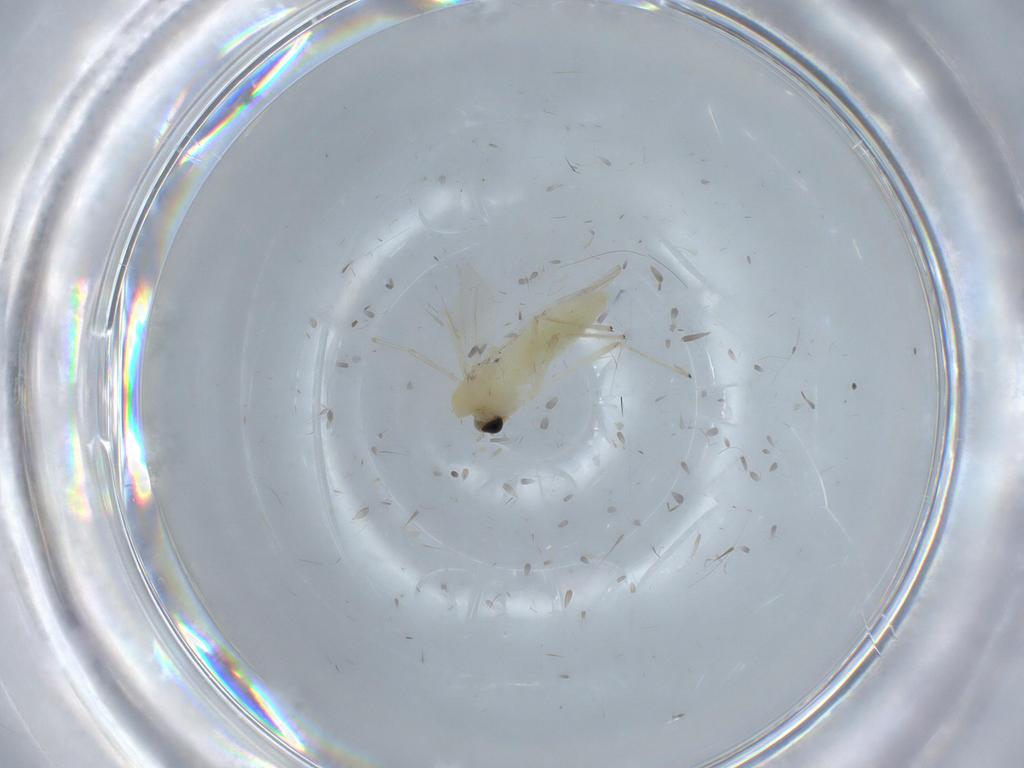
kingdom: Animalia
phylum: Arthropoda
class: Insecta
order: Diptera
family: Chironomidae
